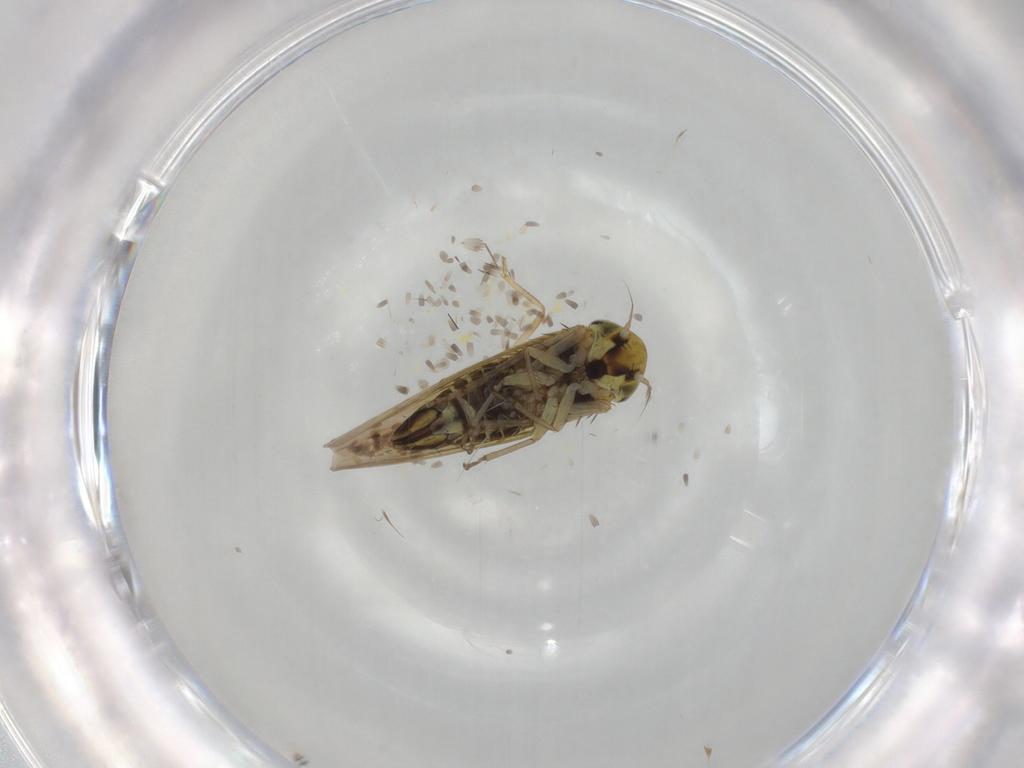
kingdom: Animalia
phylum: Arthropoda
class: Insecta
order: Hemiptera
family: Cicadellidae
